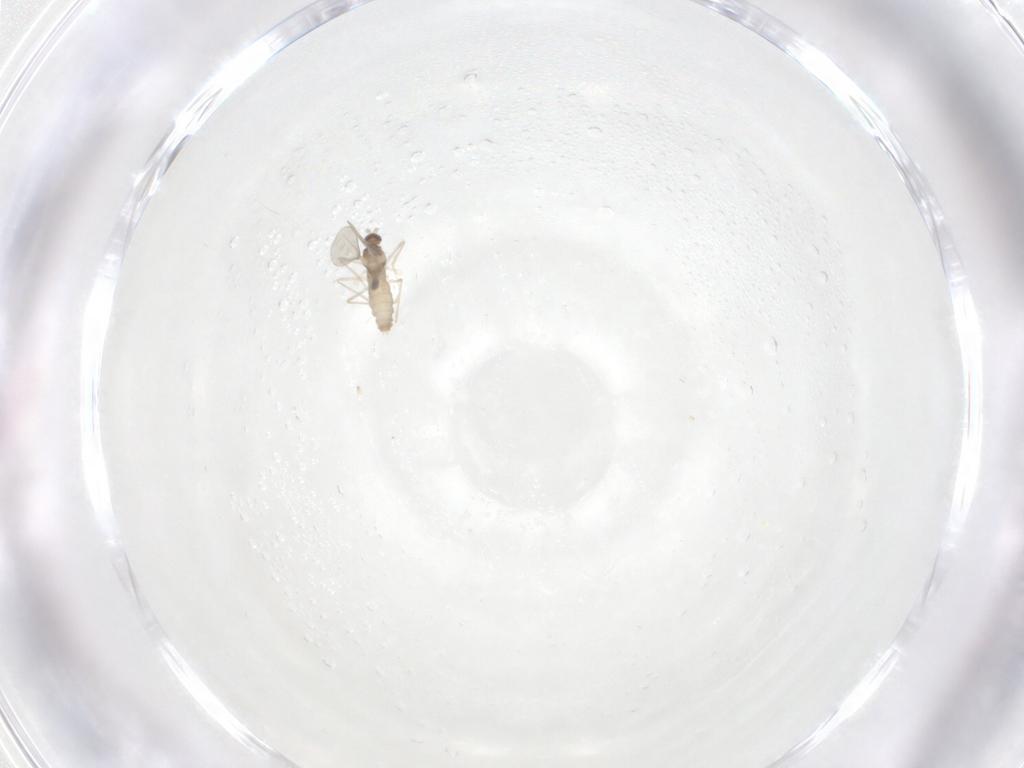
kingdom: Animalia
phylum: Arthropoda
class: Insecta
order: Diptera
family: Cecidomyiidae
